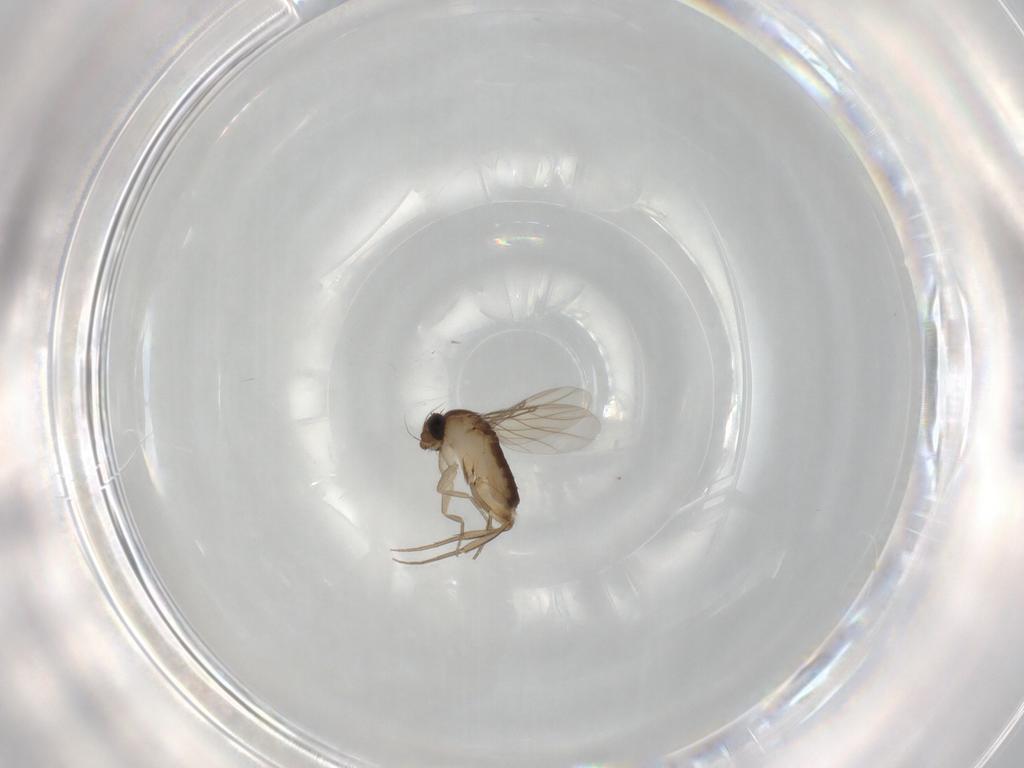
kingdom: Animalia
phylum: Arthropoda
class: Insecta
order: Diptera
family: Phoridae
